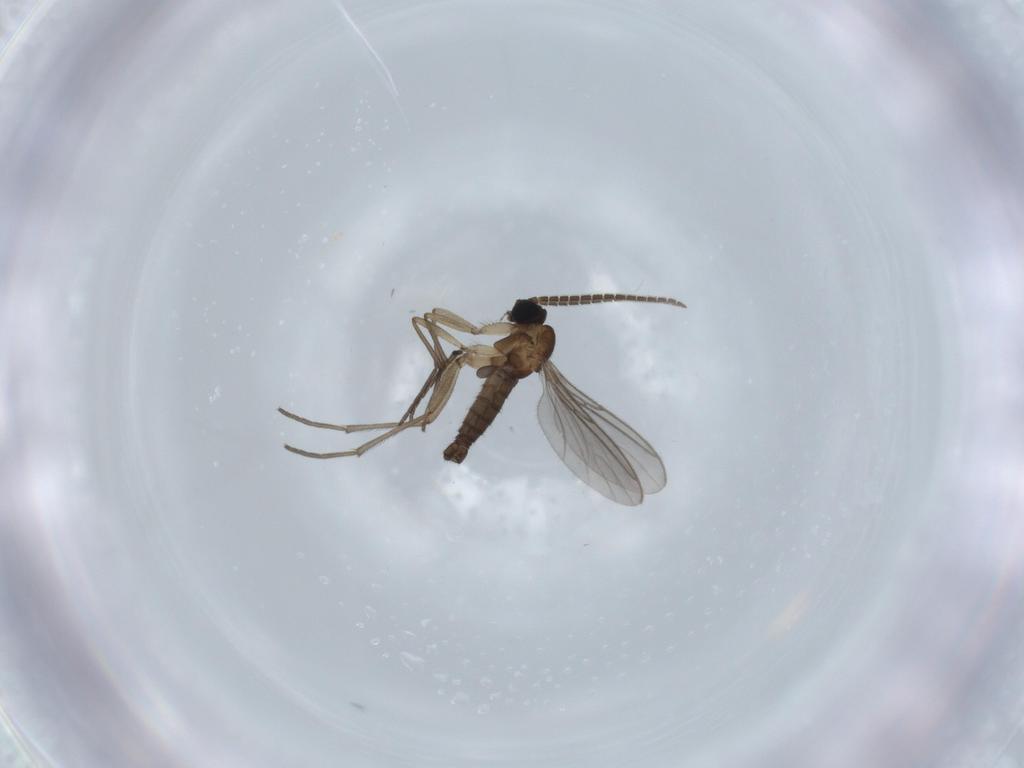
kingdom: Animalia
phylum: Arthropoda
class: Insecta
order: Diptera
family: Sciaridae
